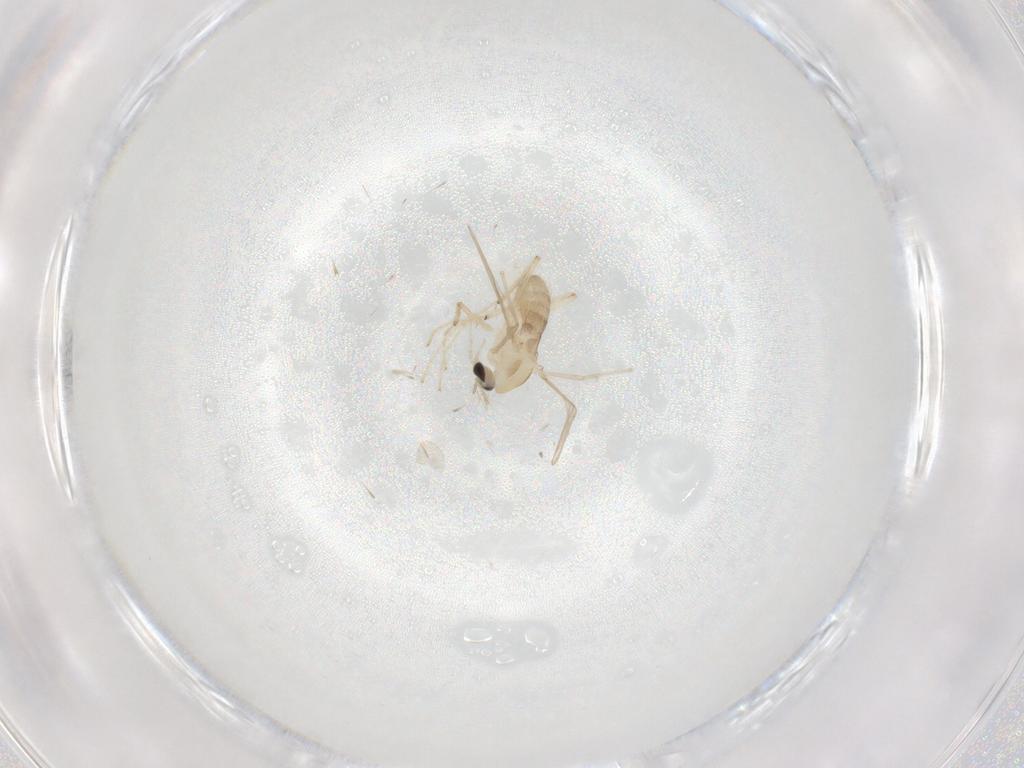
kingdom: Animalia
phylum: Arthropoda
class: Insecta
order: Diptera
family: Chironomidae
